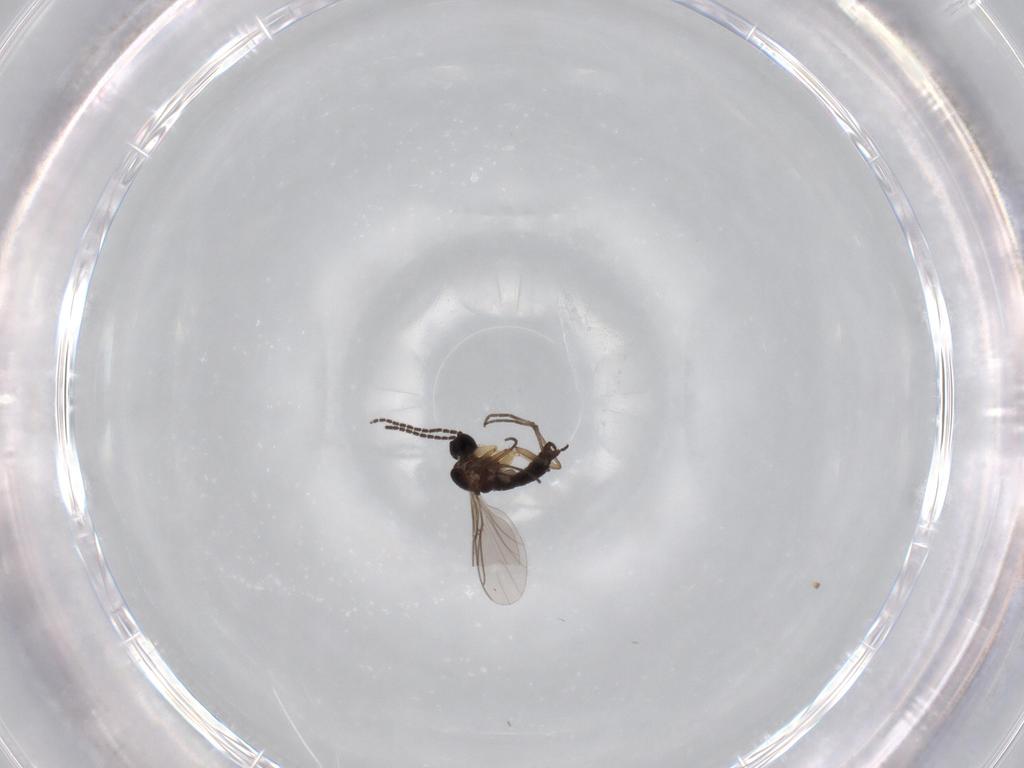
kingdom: Animalia
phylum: Arthropoda
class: Insecta
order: Diptera
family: Sciaridae
